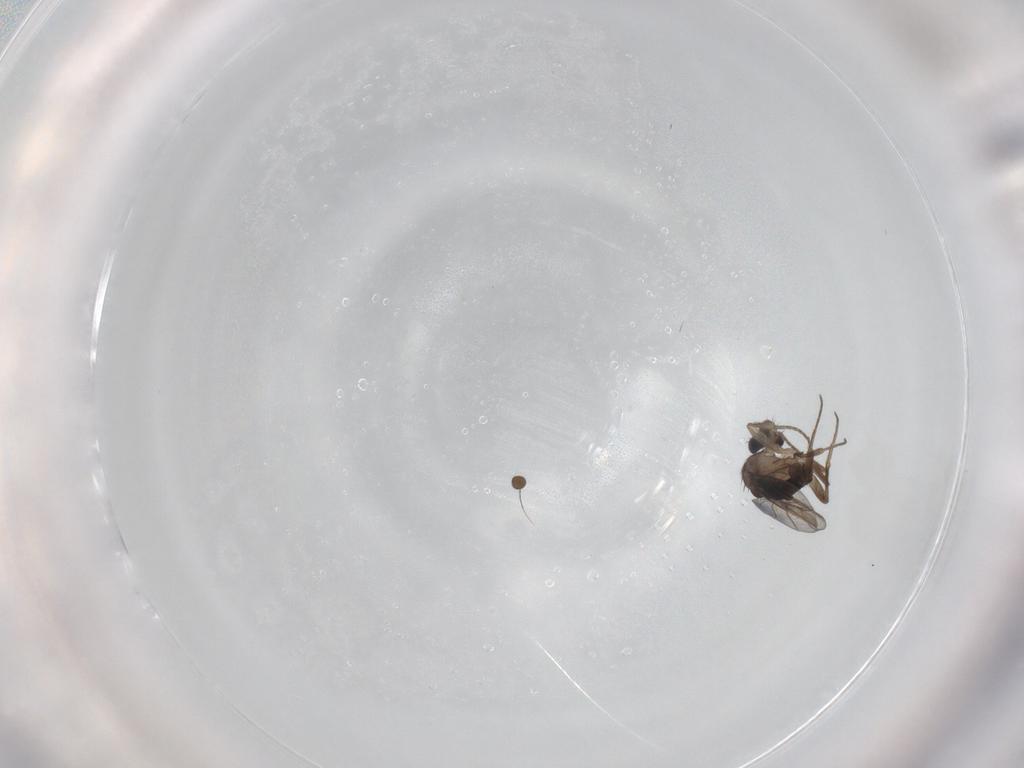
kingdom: Animalia
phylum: Arthropoda
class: Insecta
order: Diptera
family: Phoridae
